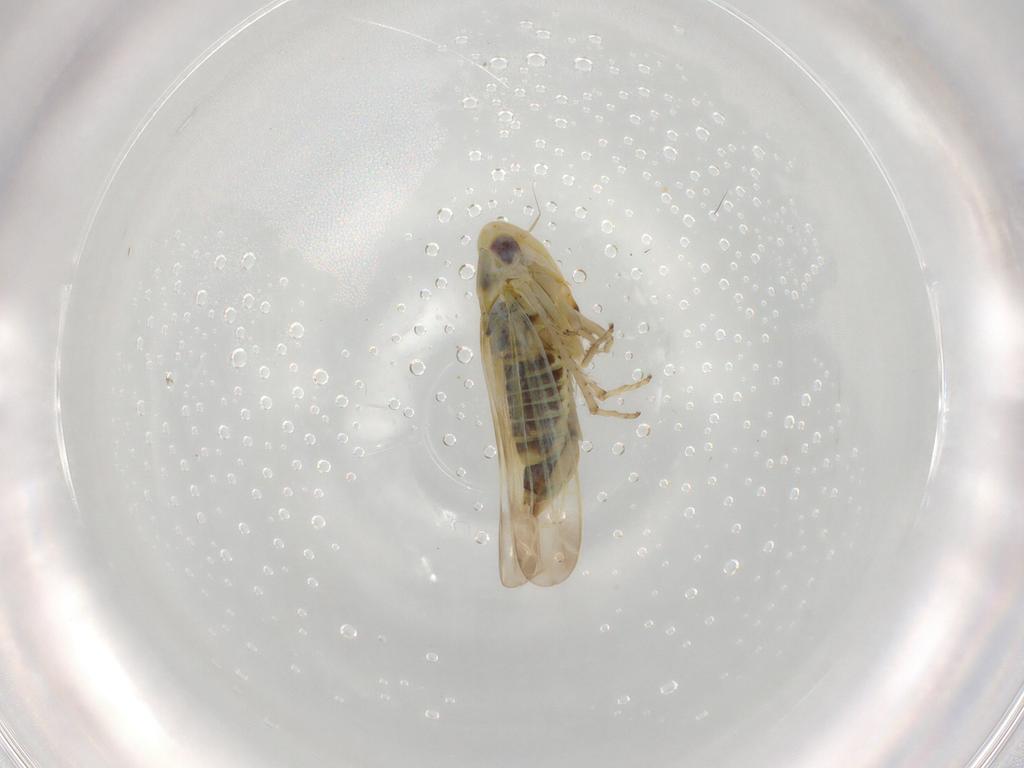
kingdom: Animalia
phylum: Arthropoda
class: Insecta
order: Hemiptera
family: Cicadellidae
